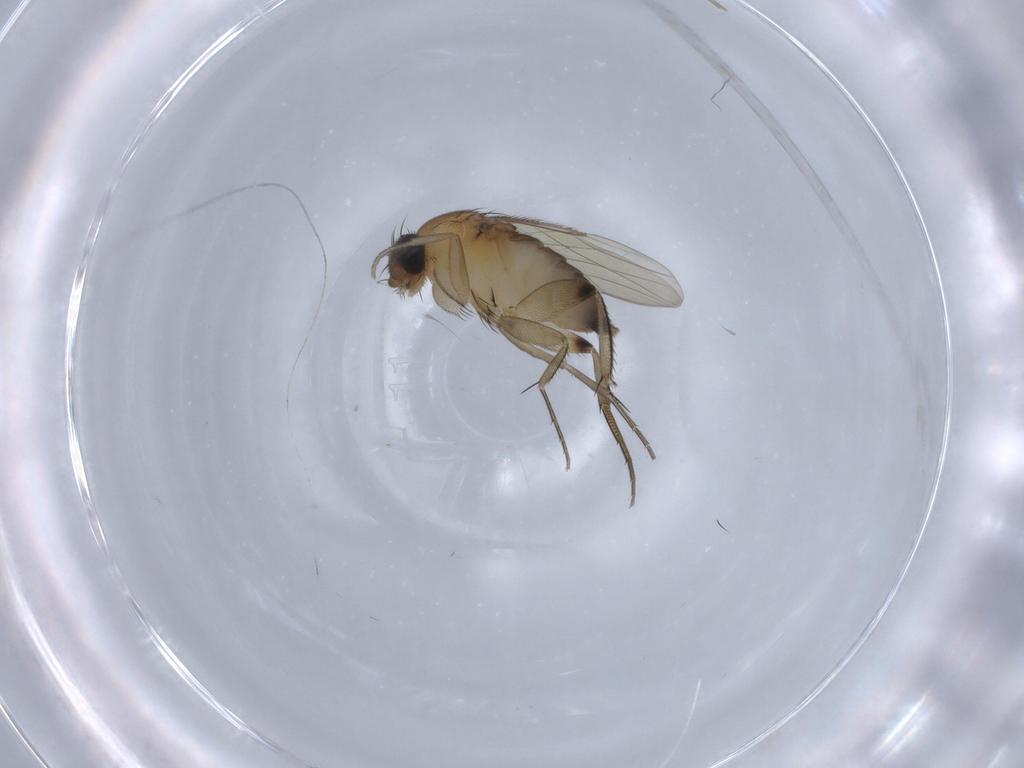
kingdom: Animalia
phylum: Arthropoda
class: Insecta
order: Diptera
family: Phoridae
